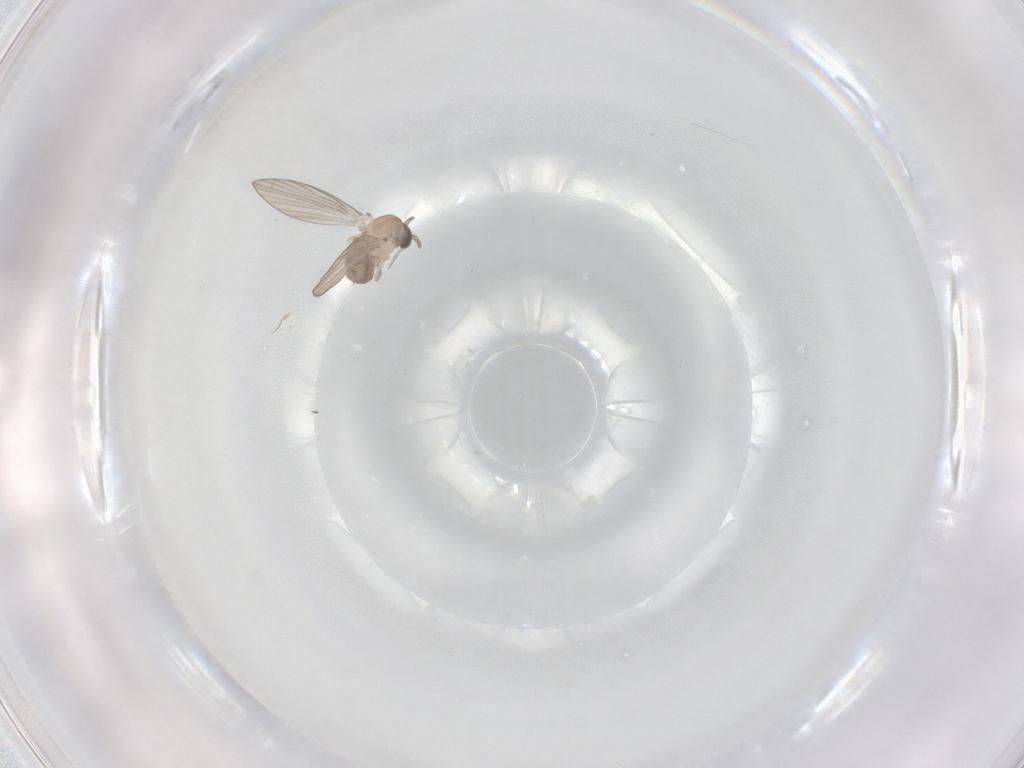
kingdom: Animalia
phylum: Arthropoda
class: Insecta
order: Diptera
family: Psychodidae
